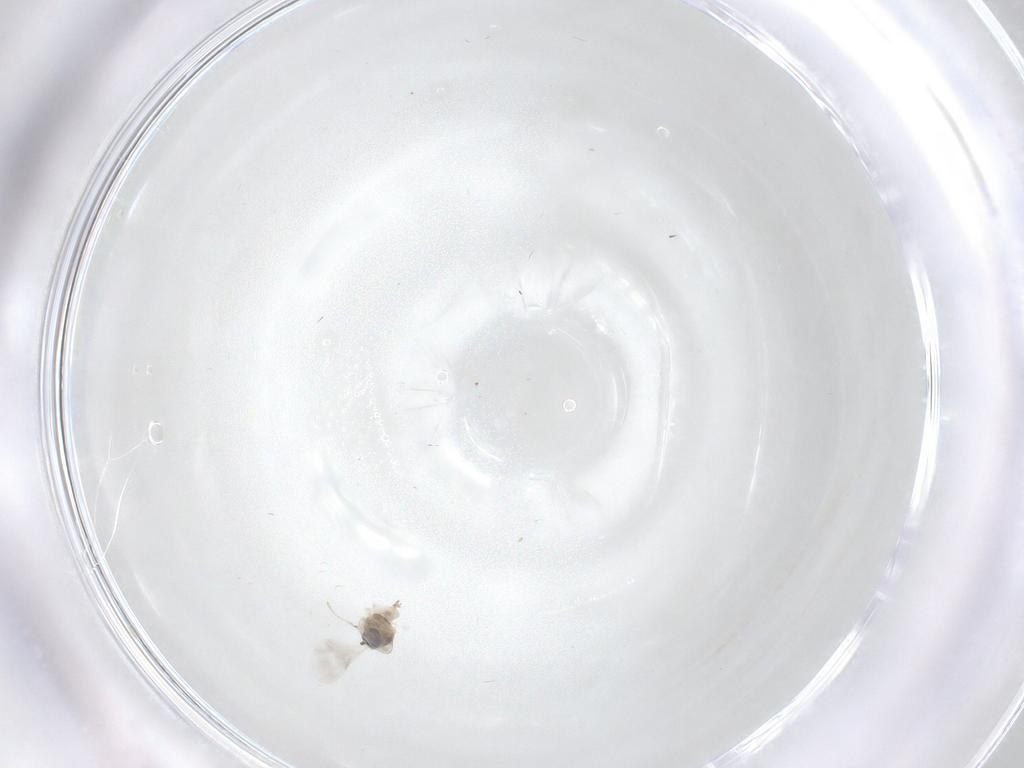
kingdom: Animalia
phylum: Arthropoda
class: Insecta
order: Diptera
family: Cecidomyiidae
